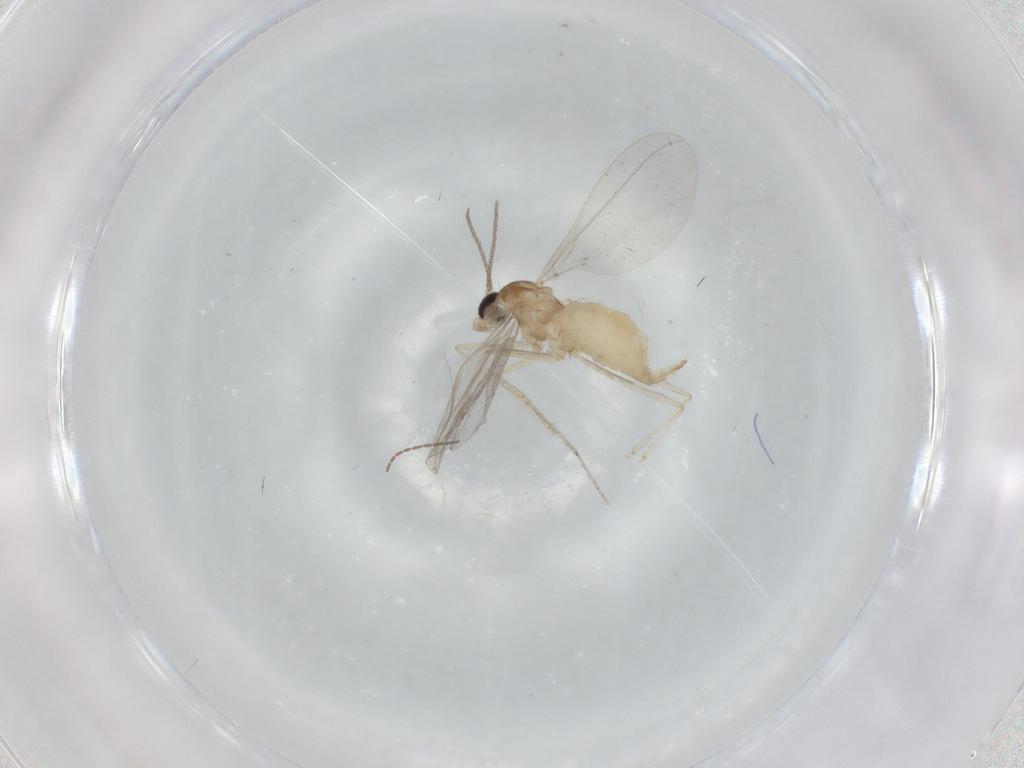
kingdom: Animalia
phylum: Arthropoda
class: Insecta
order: Diptera
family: Cecidomyiidae
